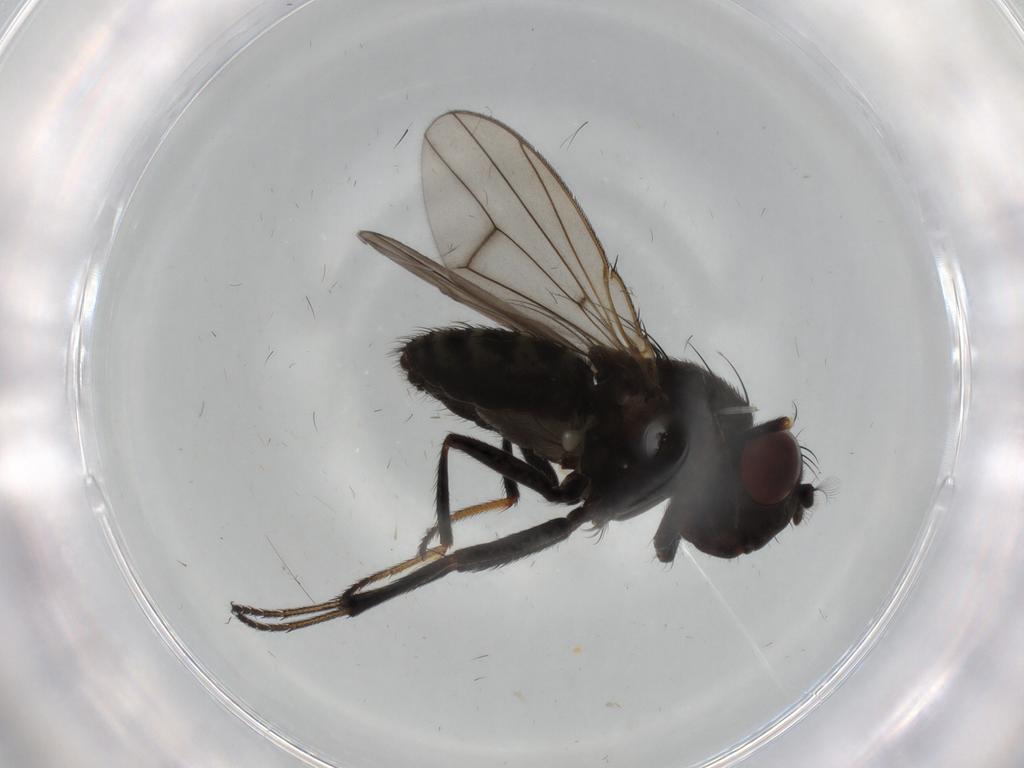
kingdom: Animalia
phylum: Arthropoda
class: Insecta
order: Diptera
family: Ephydridae
